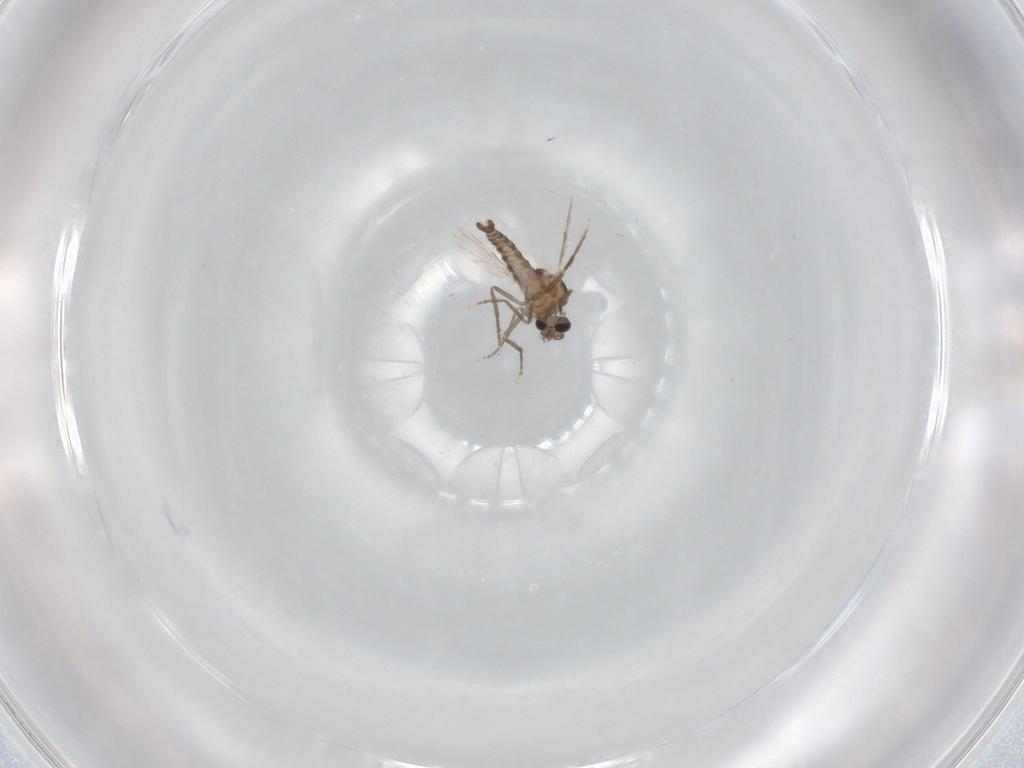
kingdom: Animalia
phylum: Arthropoda
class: Insecta
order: Diptera
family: Ceratopogonidae
